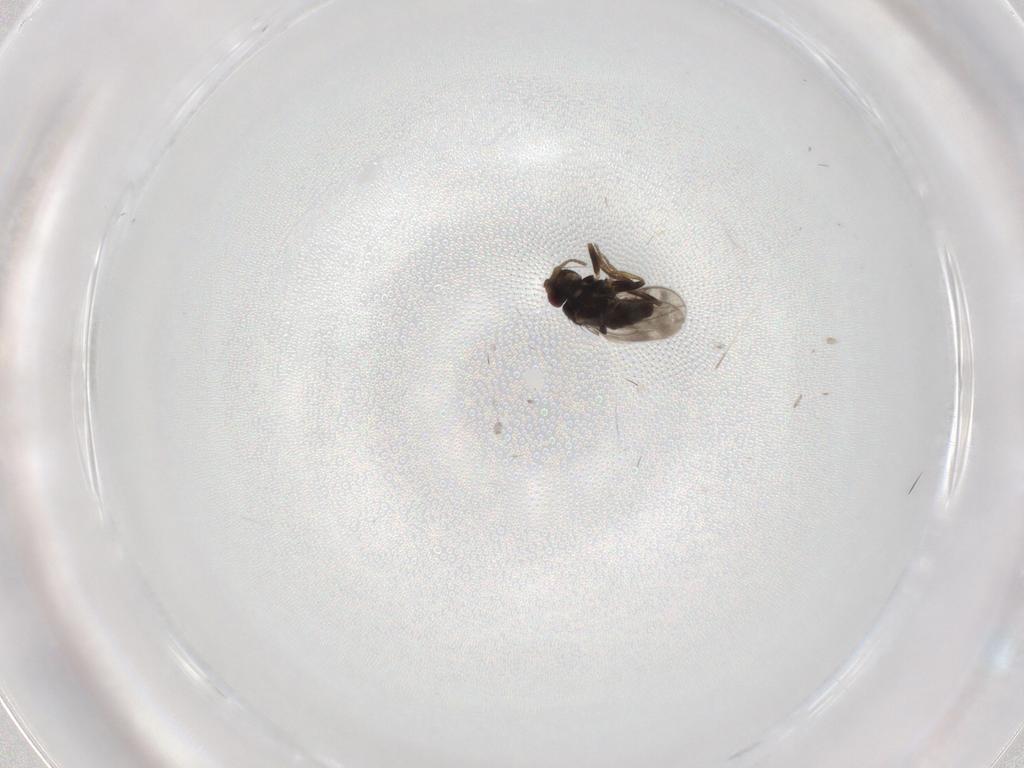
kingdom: Animalia
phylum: Arthropoda
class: Insecta
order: Diptera
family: Sphaeroceridae
